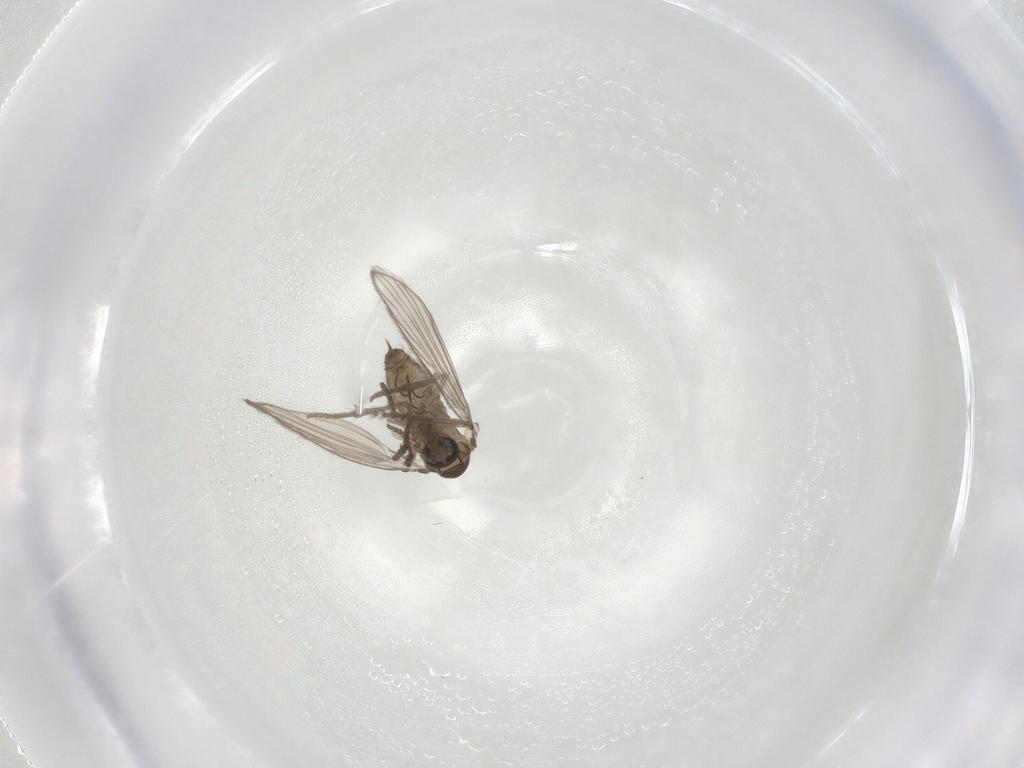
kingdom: Animalia
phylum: Arthropoda
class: Insecta
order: Diptera
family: Psychodidae
